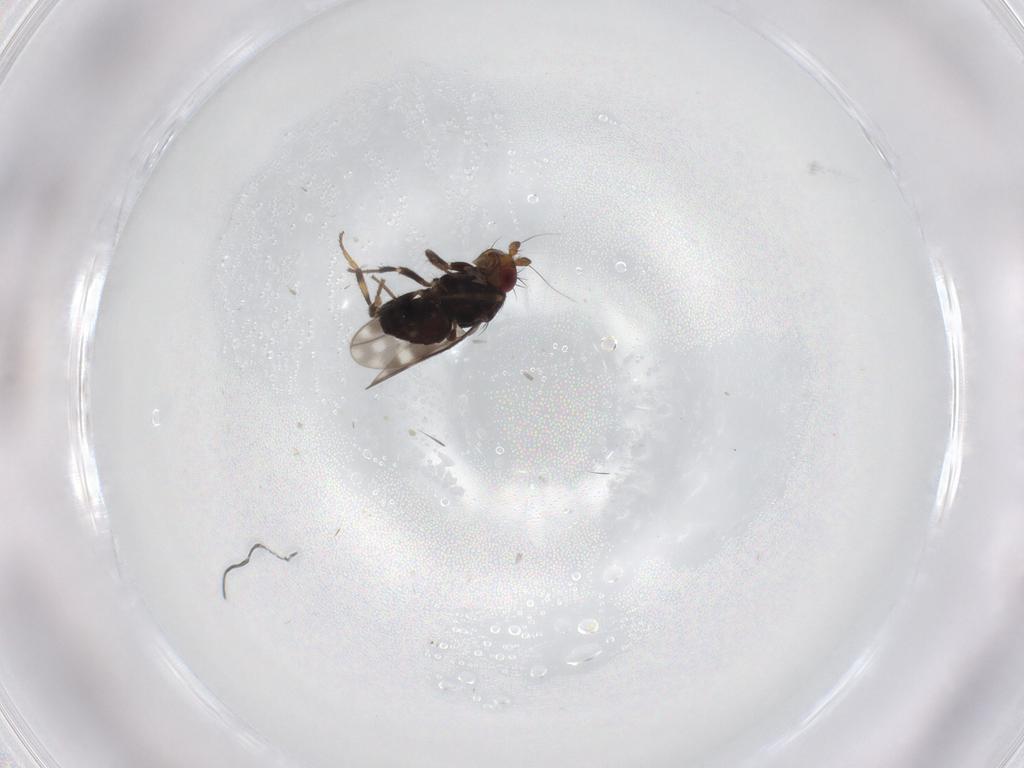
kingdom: Animalia
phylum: Arthropoda
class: Insecta
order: Diptera
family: Sphaeroceridae
